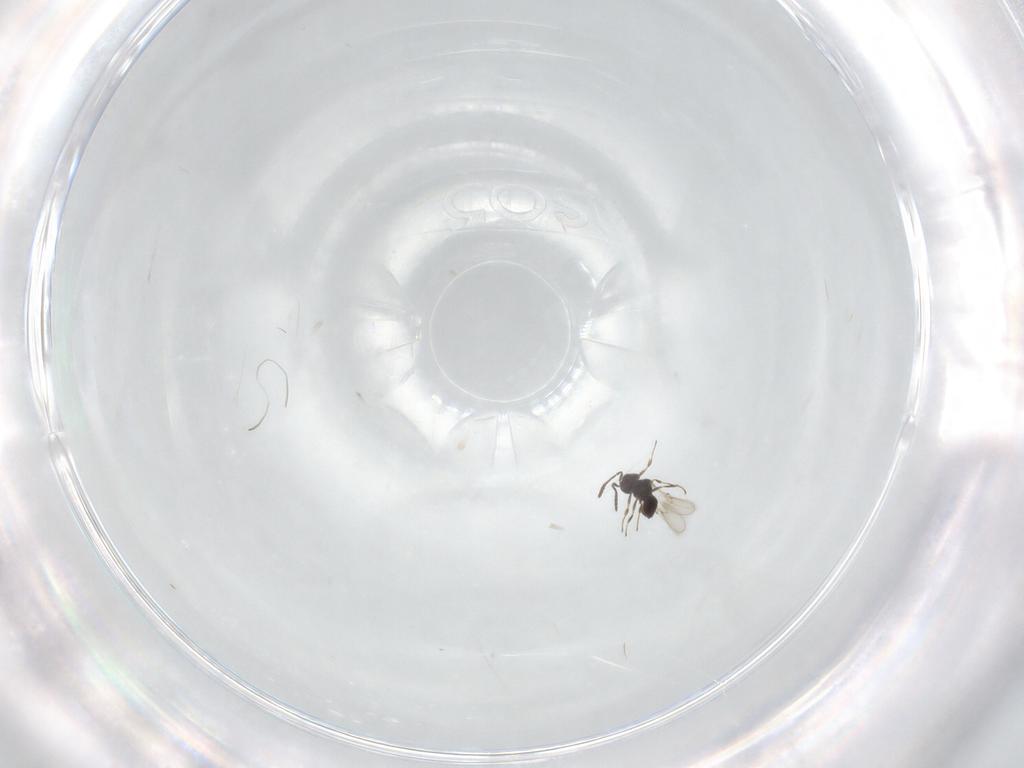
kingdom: Animalia
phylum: Arthropoda
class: Insecta
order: Hymenoptera
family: Scelionidae
